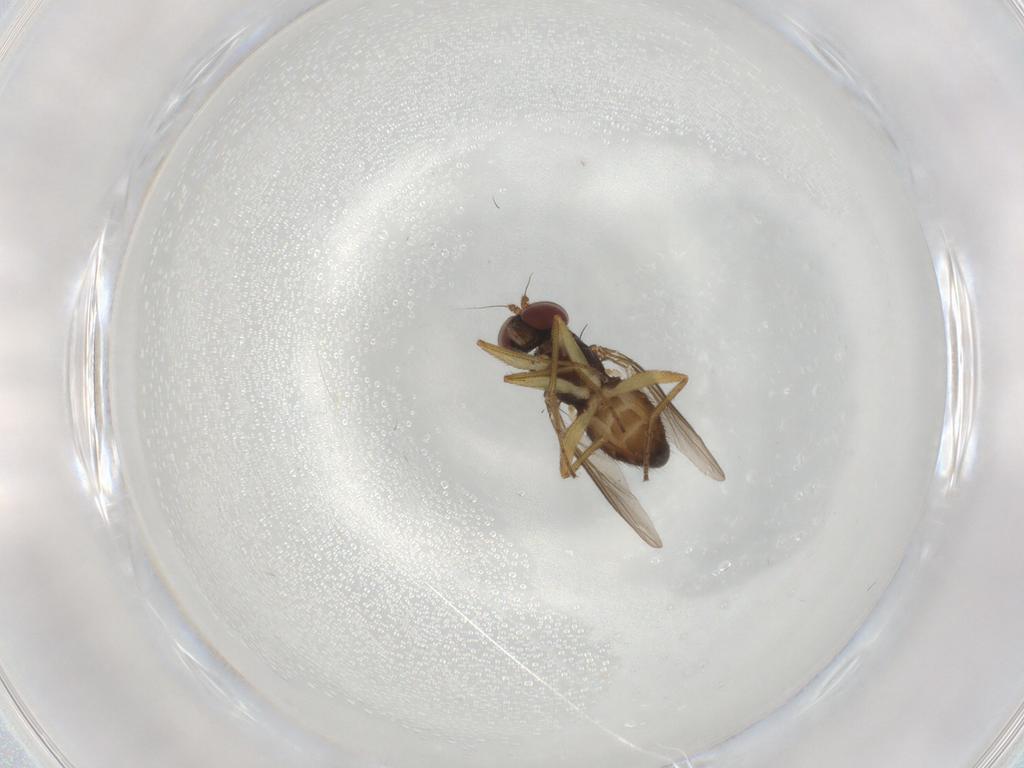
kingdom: Animalia
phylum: Arthropoda
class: Insecta
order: Diptera
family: Dolichopodidae
